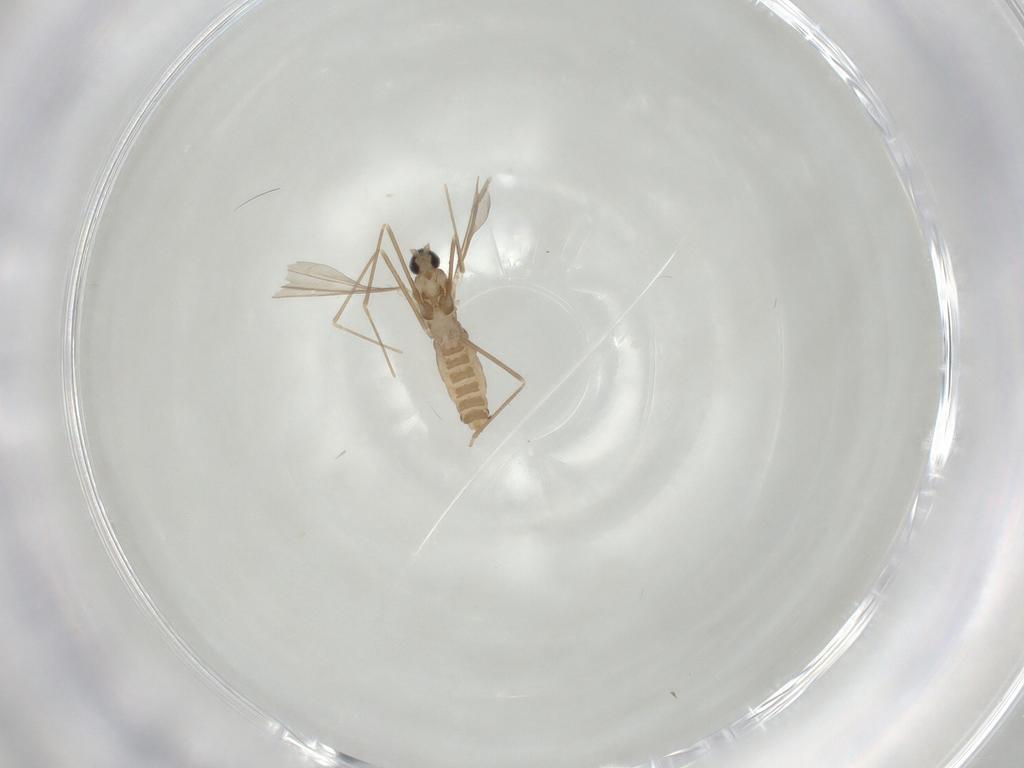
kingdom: Animalia
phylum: Arthropoda
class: Insecta
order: Diptera
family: Cecidomyiidae
